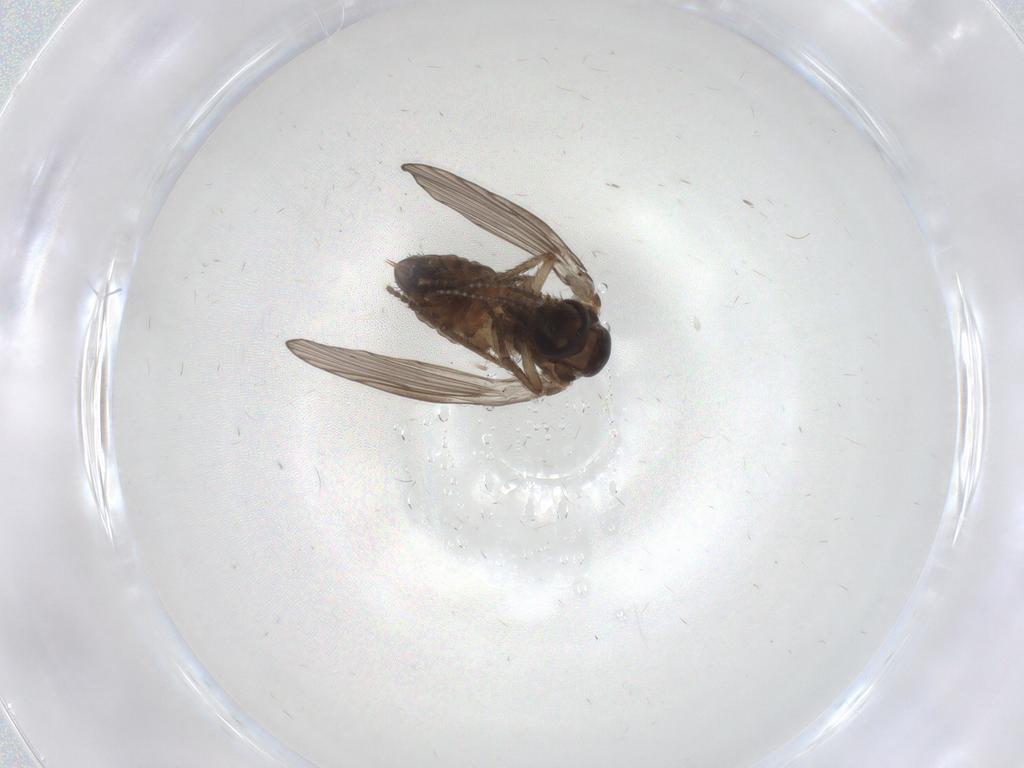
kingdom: Animalia
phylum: Arthropoda
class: Insecta
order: Diptera
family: Psychodidae
